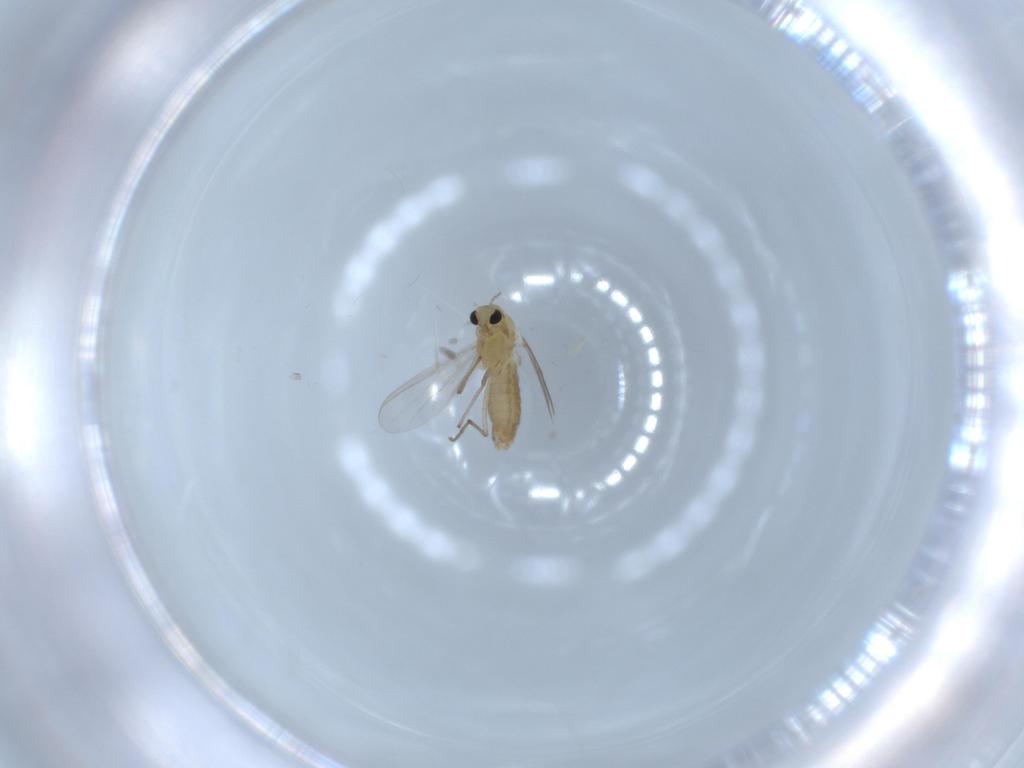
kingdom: Animalia
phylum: Arthropoda
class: Insecta
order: Diptera
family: Chironomidae
